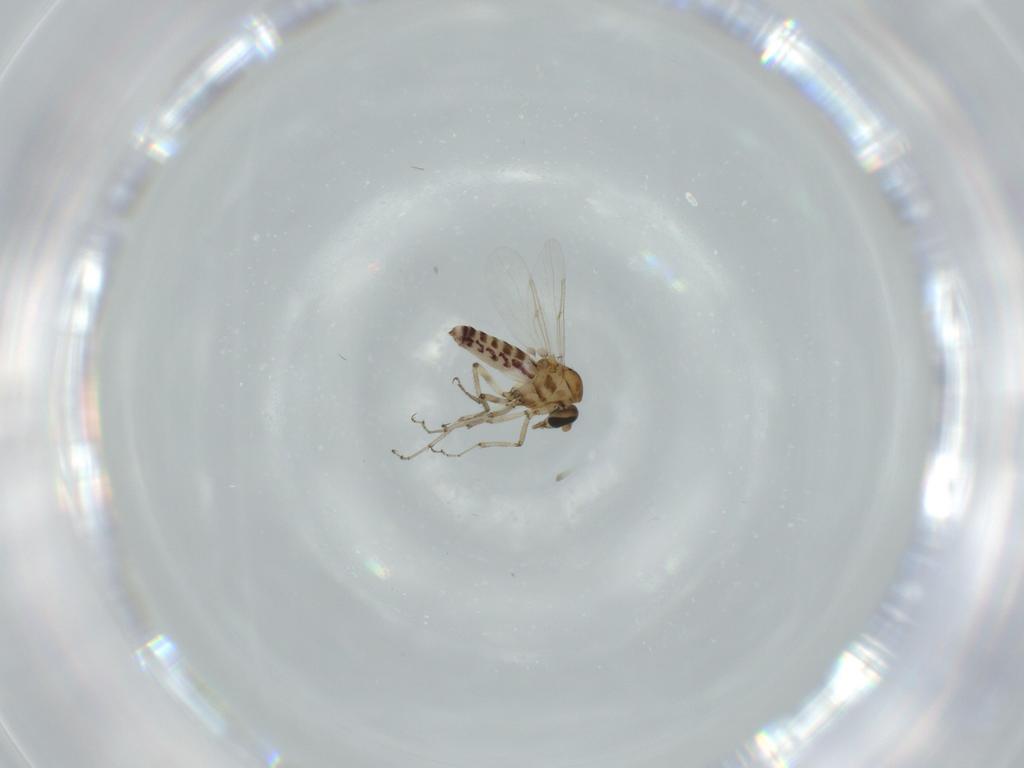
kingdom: Animalia
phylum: Arthropoda
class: Insecta
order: Diptera
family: Ceratopogonidae
